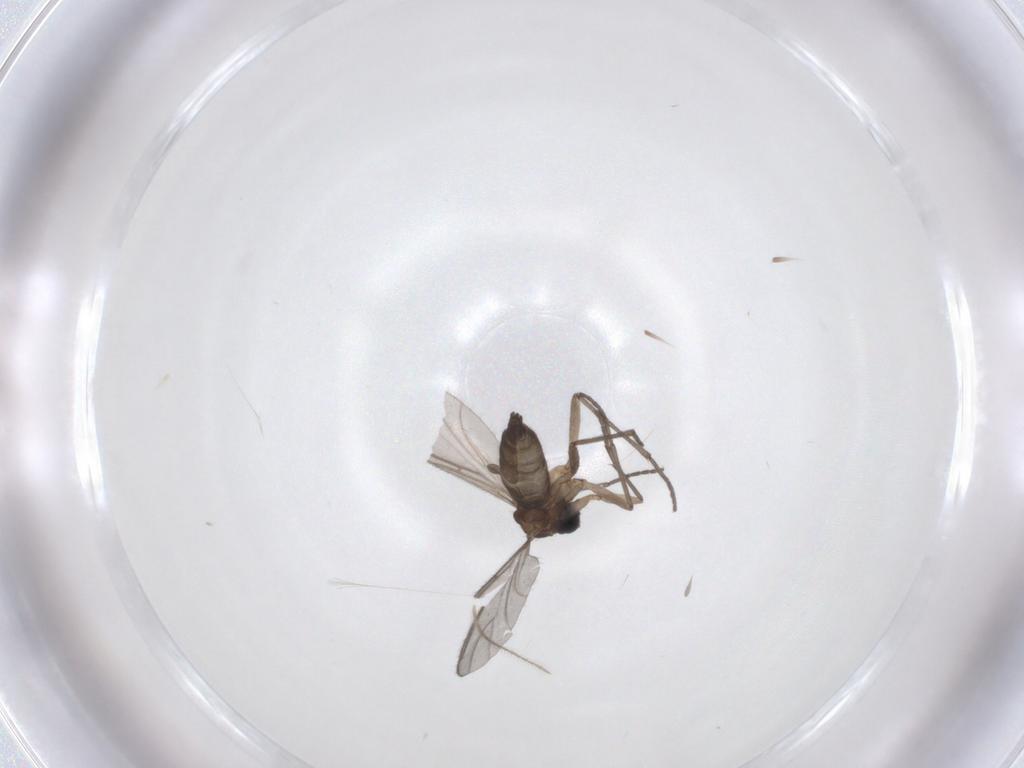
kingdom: Animalia
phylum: Arthropoda
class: Insecta
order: Diptera
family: Sciaridae
